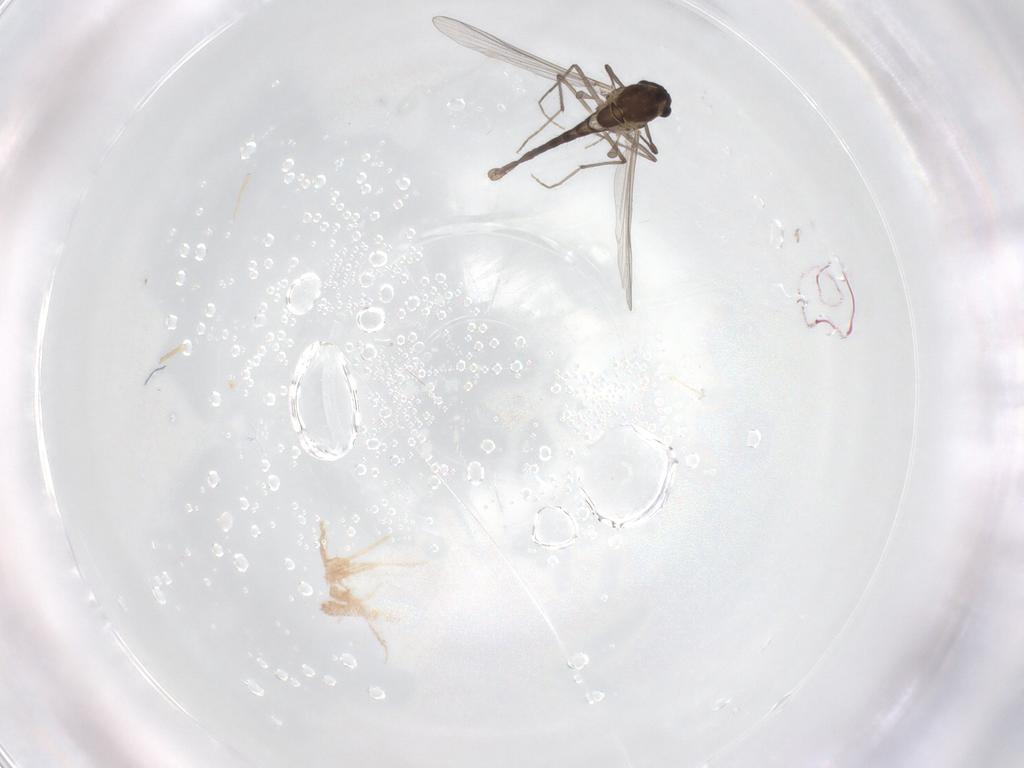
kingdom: Animalia
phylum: Arthropoda
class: Insecta
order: Diptera
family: Chironomidae
